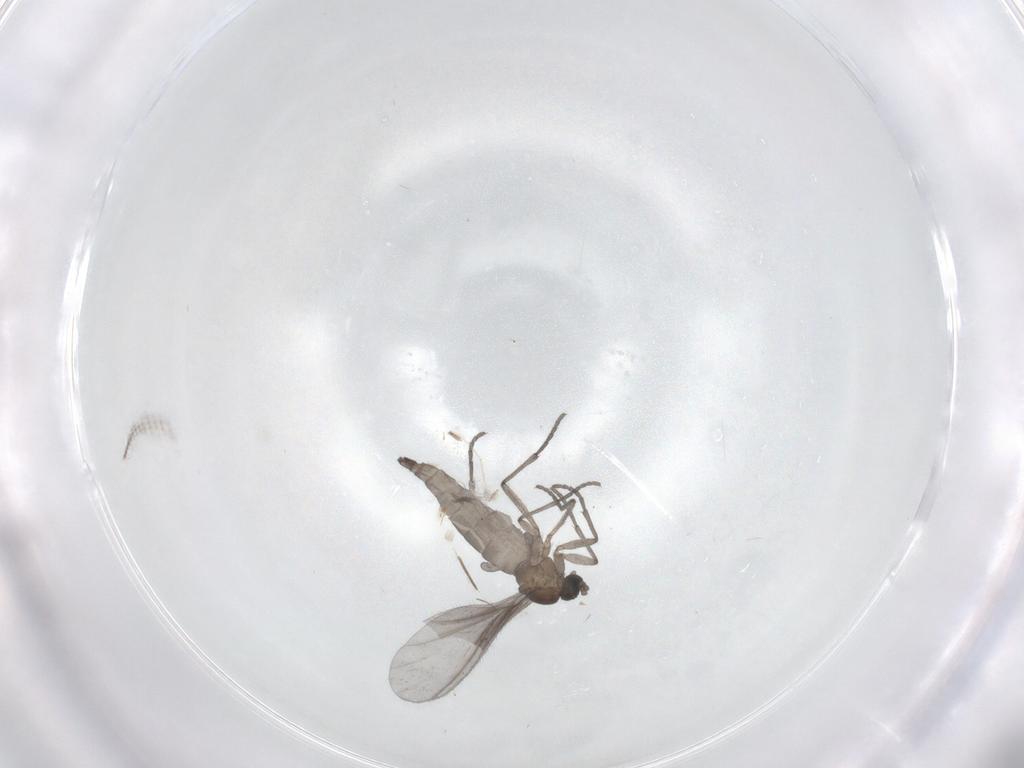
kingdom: Animalia
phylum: Arthropoda
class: Insecta
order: Diptera
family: Sciaridae
